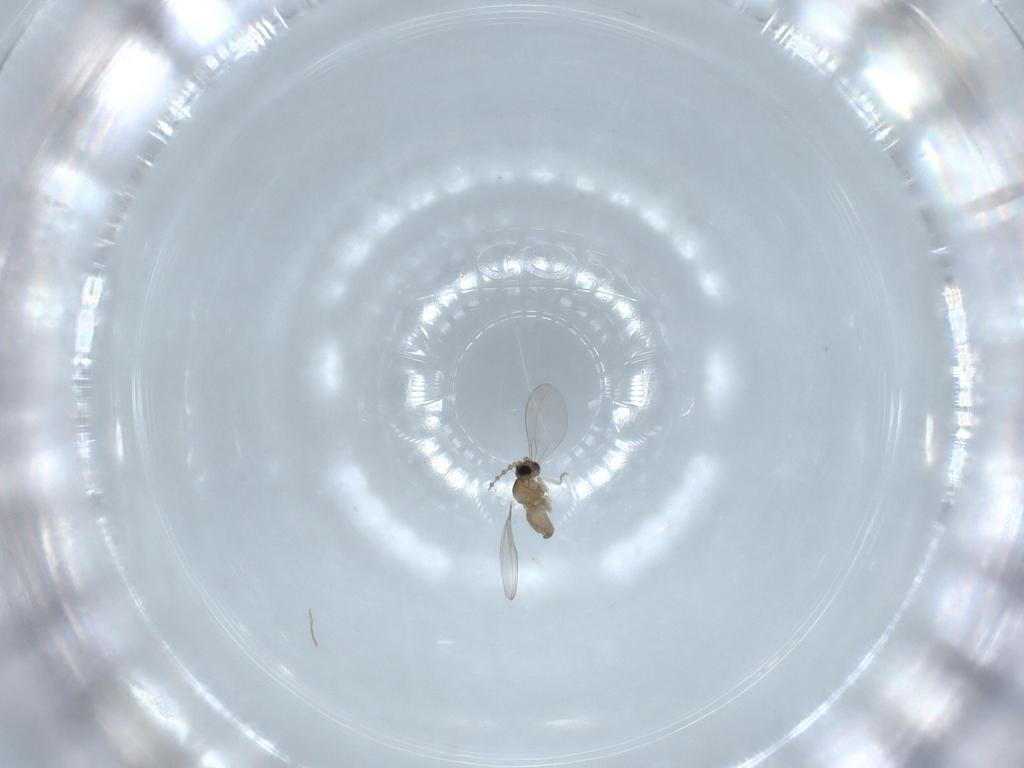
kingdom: Animalia
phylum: Arthropoda
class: Insecta
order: Diptera
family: Cecidomyiidae
